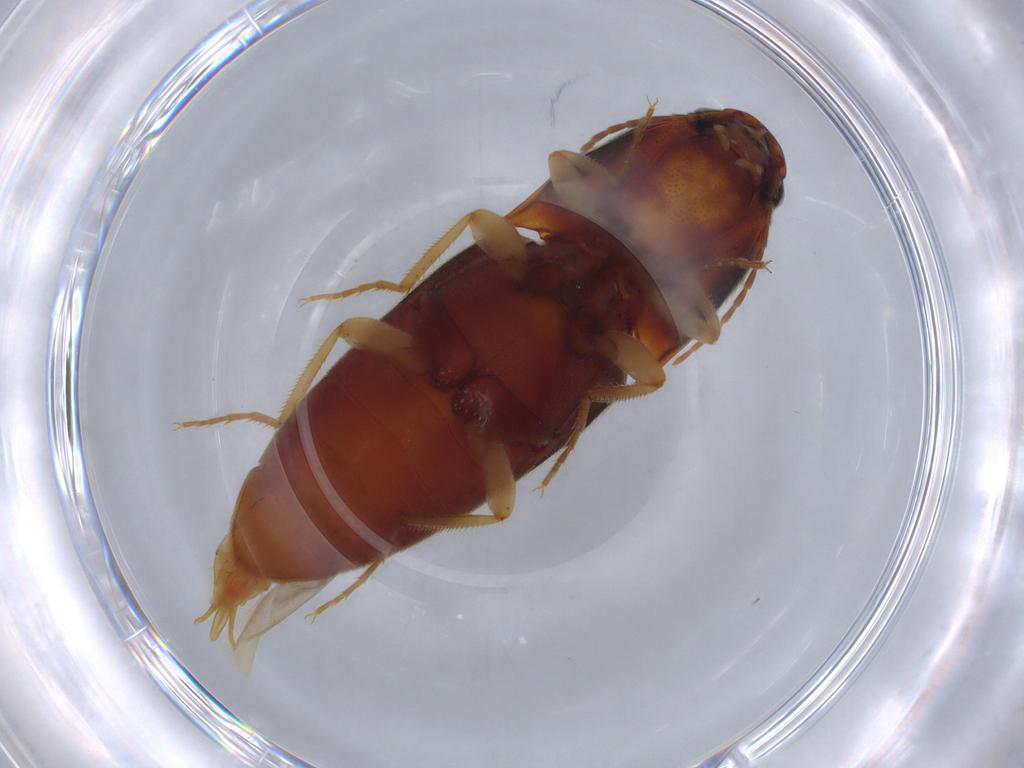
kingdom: Animalia
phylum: Arthropoda
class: Insecta
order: Coleoptera
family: Elateridae
